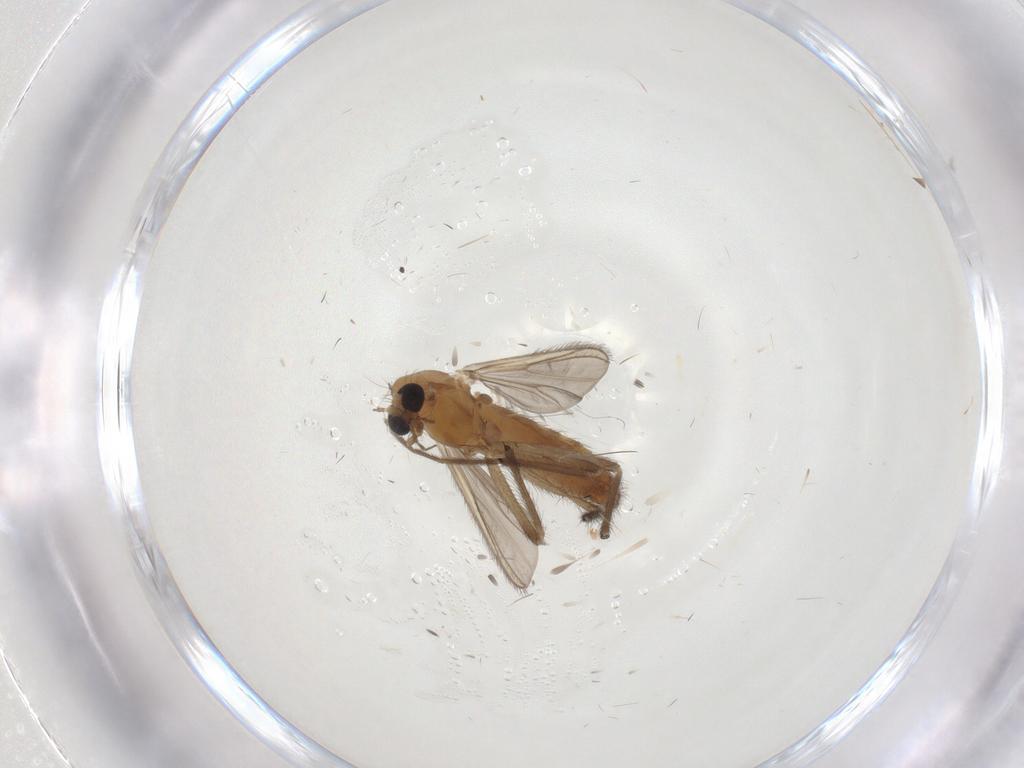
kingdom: Animalia
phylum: Arthropoda
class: Insecta
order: Diptera
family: Chironomidae
